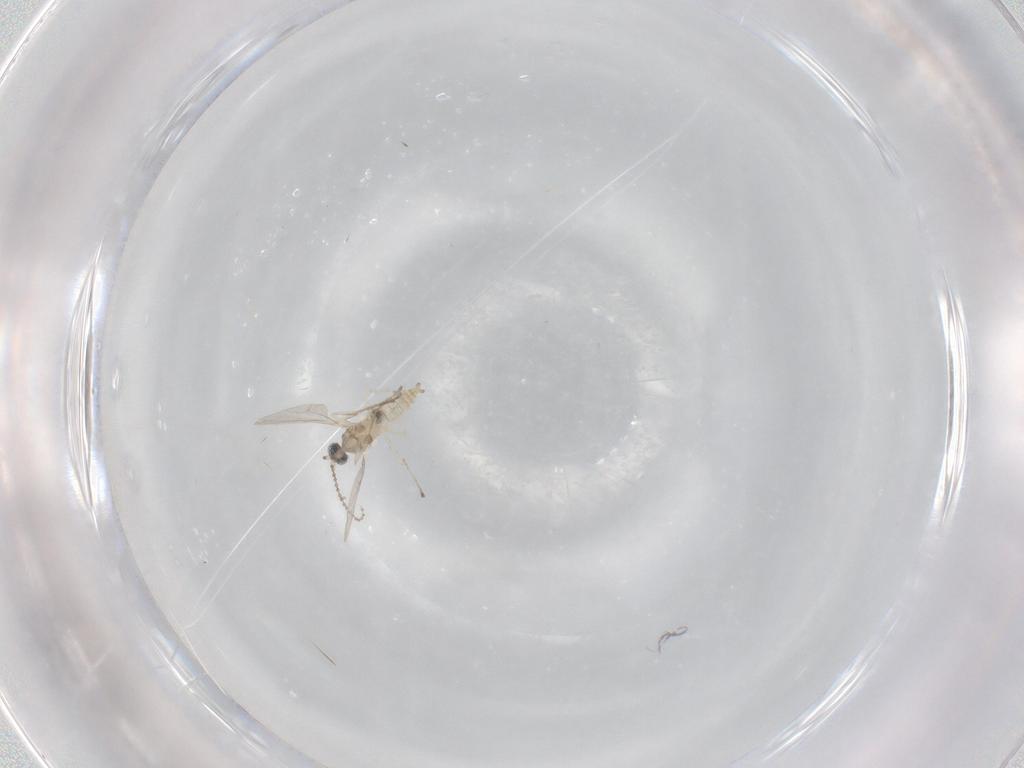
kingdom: Animalia
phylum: Arthropoda
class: Insecta
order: Diptera
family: Cecidomyiidae
